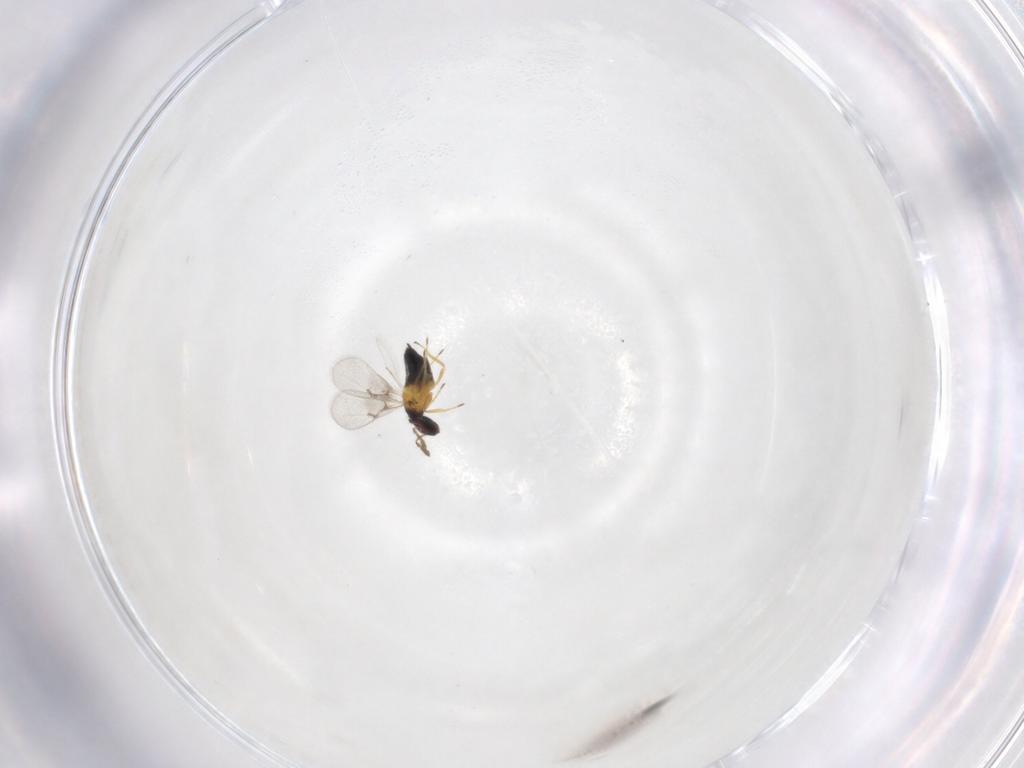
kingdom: Animalia
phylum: Arthropoda
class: Insecta
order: Hymenoptera
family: Trichogrammatidae
